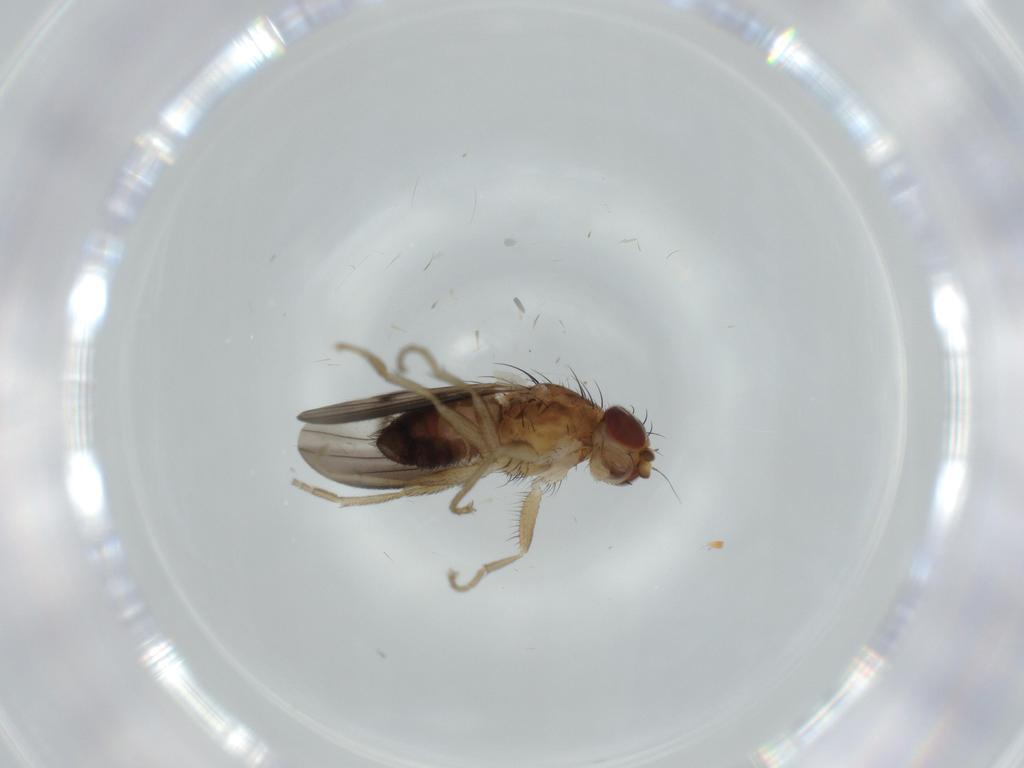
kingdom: Animalia
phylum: Arthropoda
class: Insecta
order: Diptera
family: Heleomyzidae
